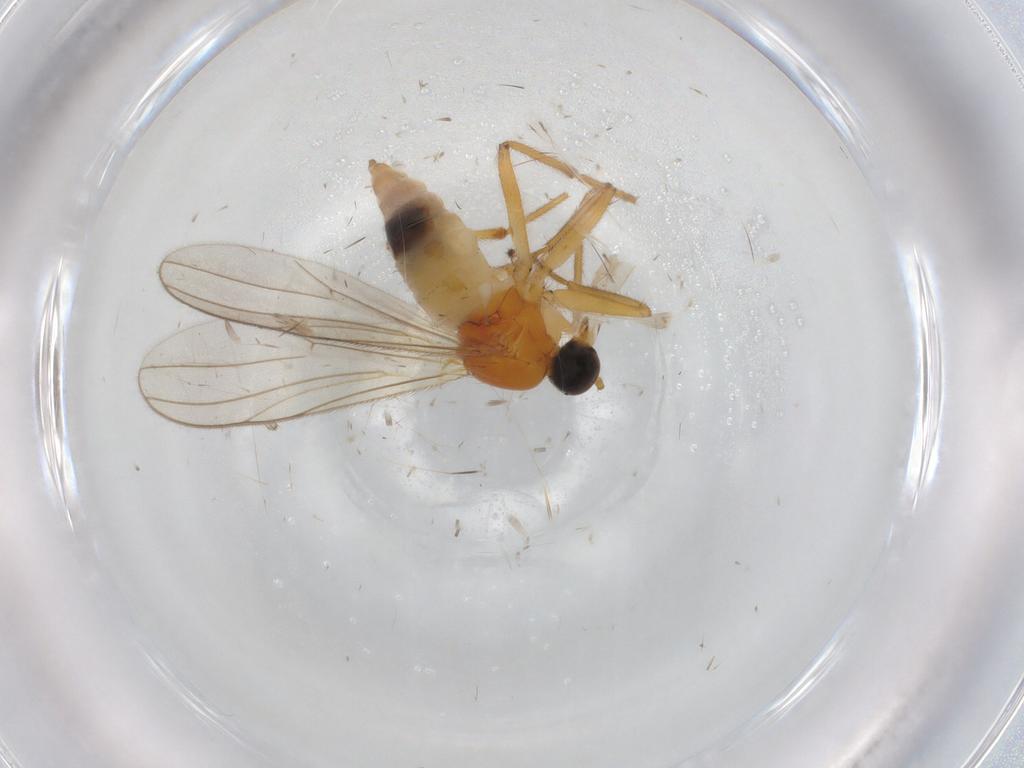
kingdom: Animalia
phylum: Arthropoda
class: Insecta
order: Diptera
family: Hybotidae
